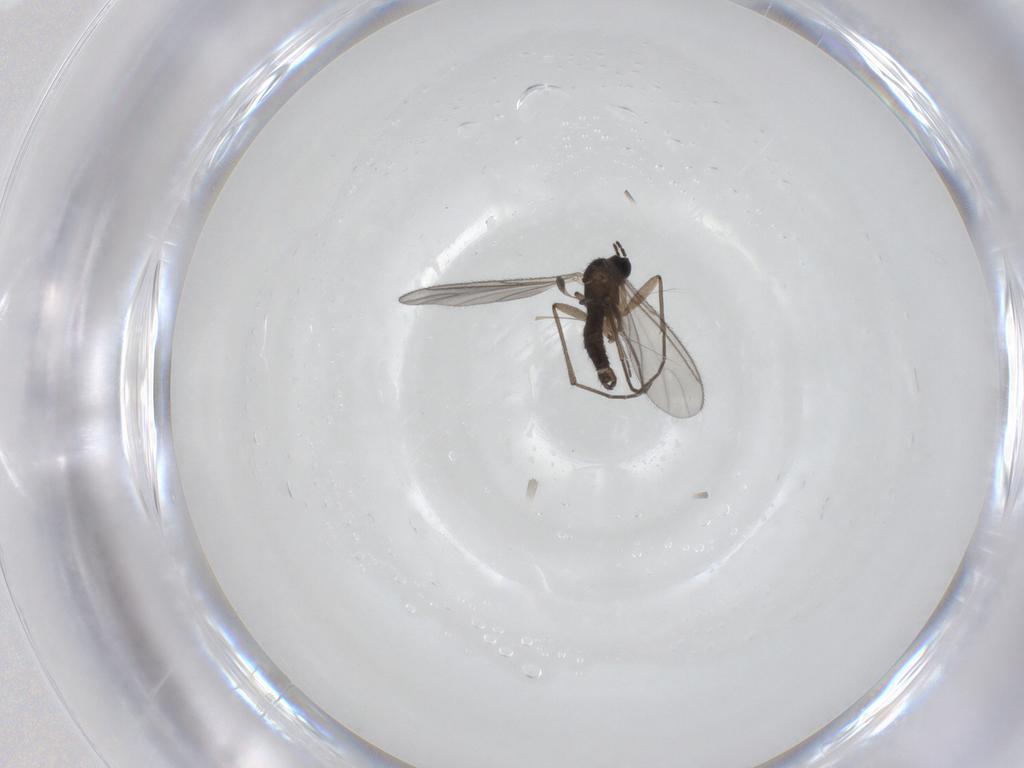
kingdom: Animalia
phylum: Arthropoda
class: Insecta
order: Diptera
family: Sciaridae
